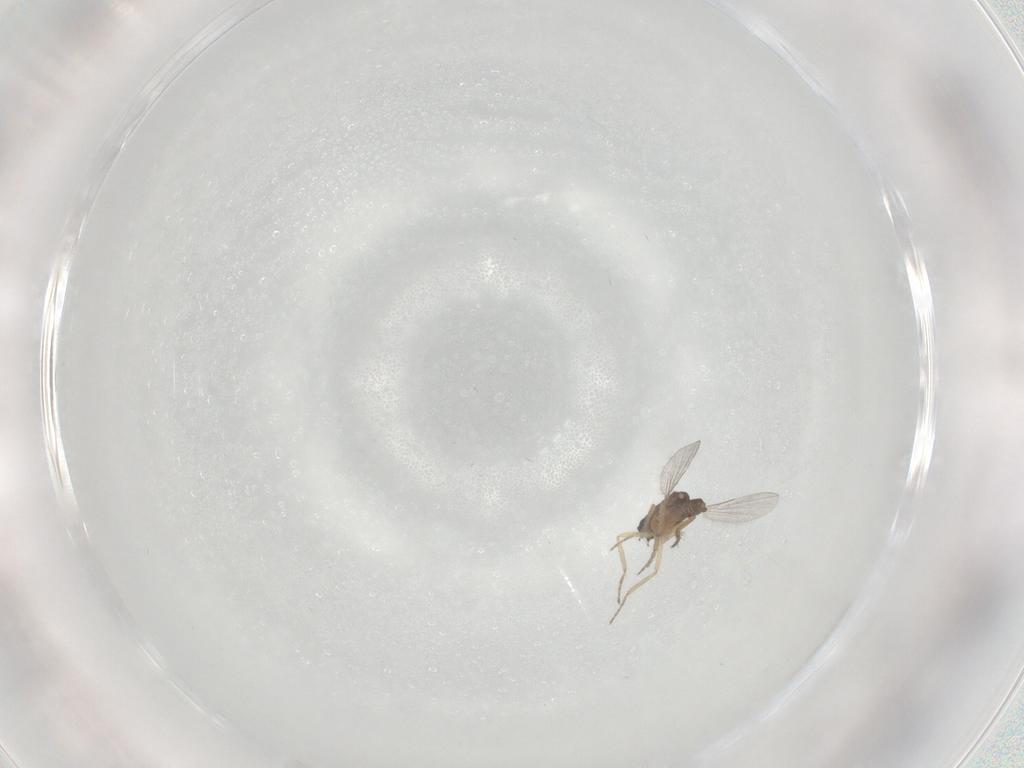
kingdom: Animalia
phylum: Arthropoda
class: Insecta
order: Diptera
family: Ceratopogonidae
